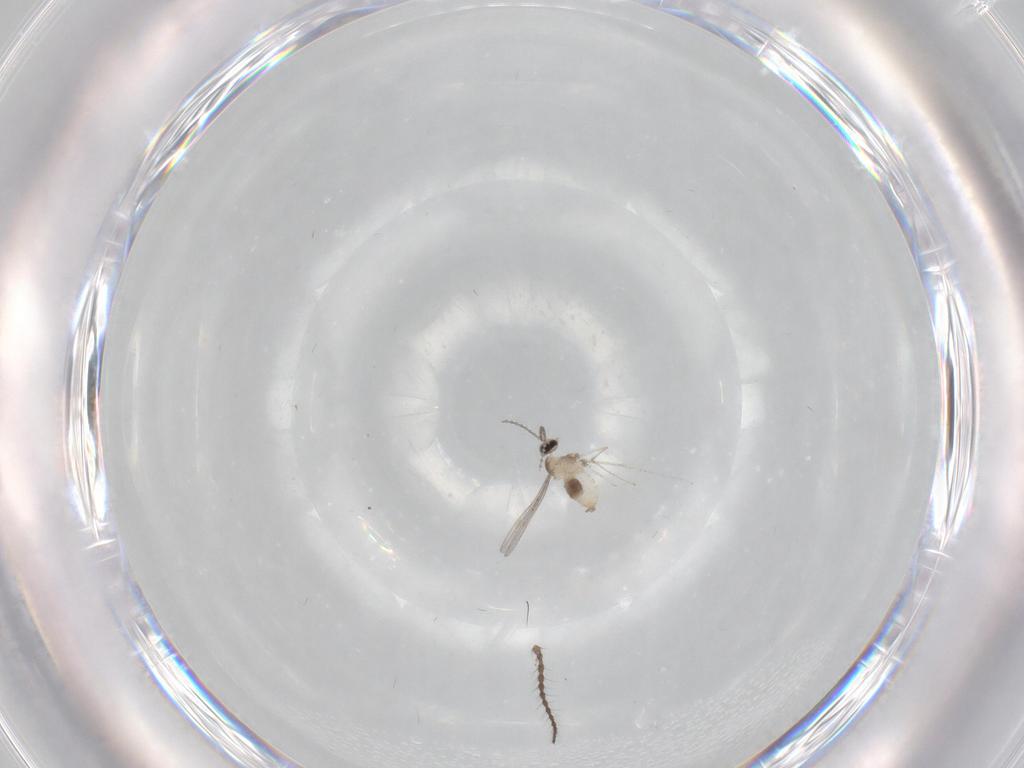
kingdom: Animalia
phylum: Arthropoda
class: Insecta
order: Diptera
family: Cecidomyiidae
